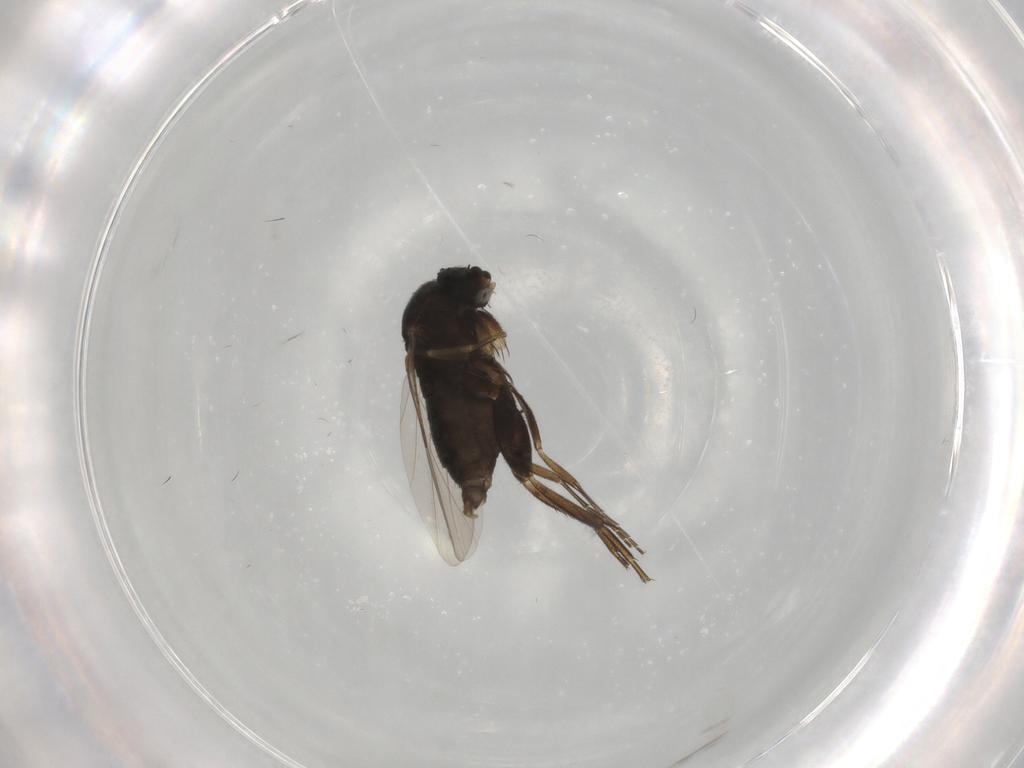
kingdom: Animalia
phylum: Arthropoda
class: Insecta
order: Diptera
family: Phoridae
